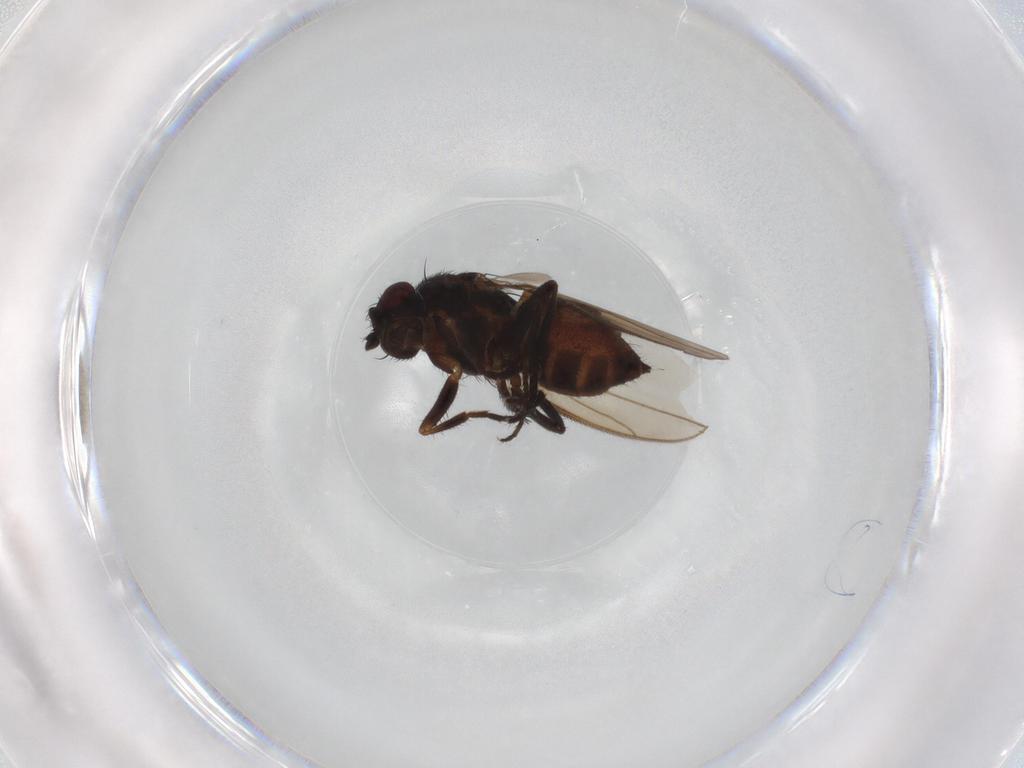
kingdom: Animalia
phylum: Arthropoda
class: Insecta
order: Diptera
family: Sphaeroceridae
